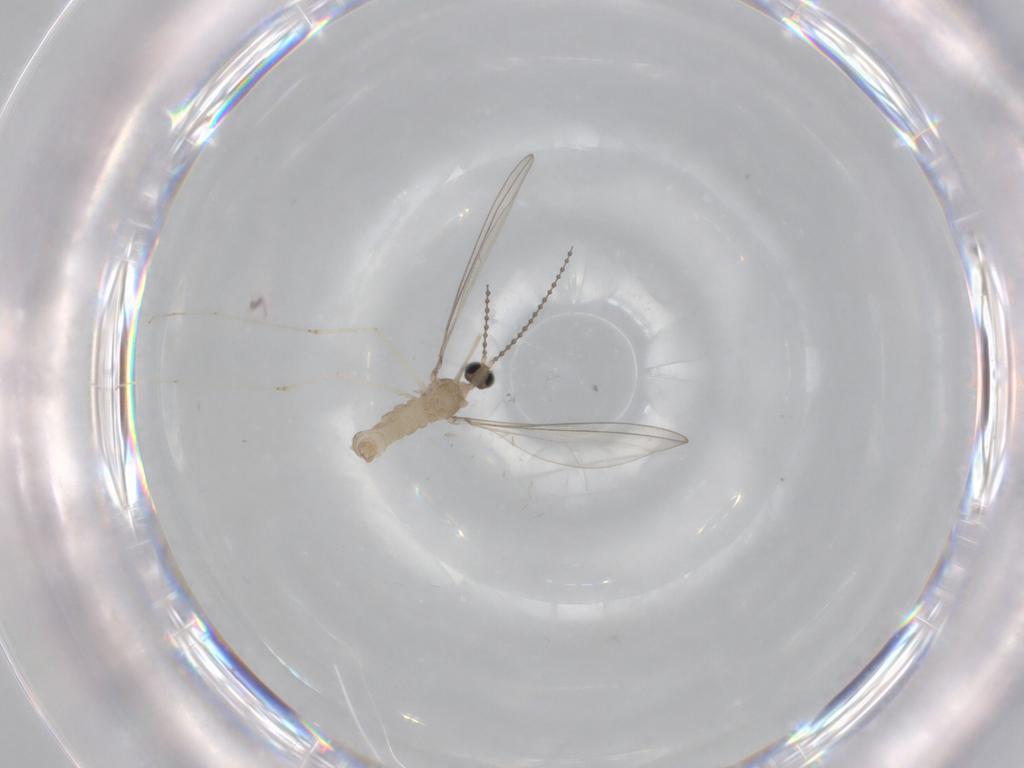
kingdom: Animalia
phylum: Arthropoda
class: Insecta
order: Diptera
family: Cecidomyiidae
